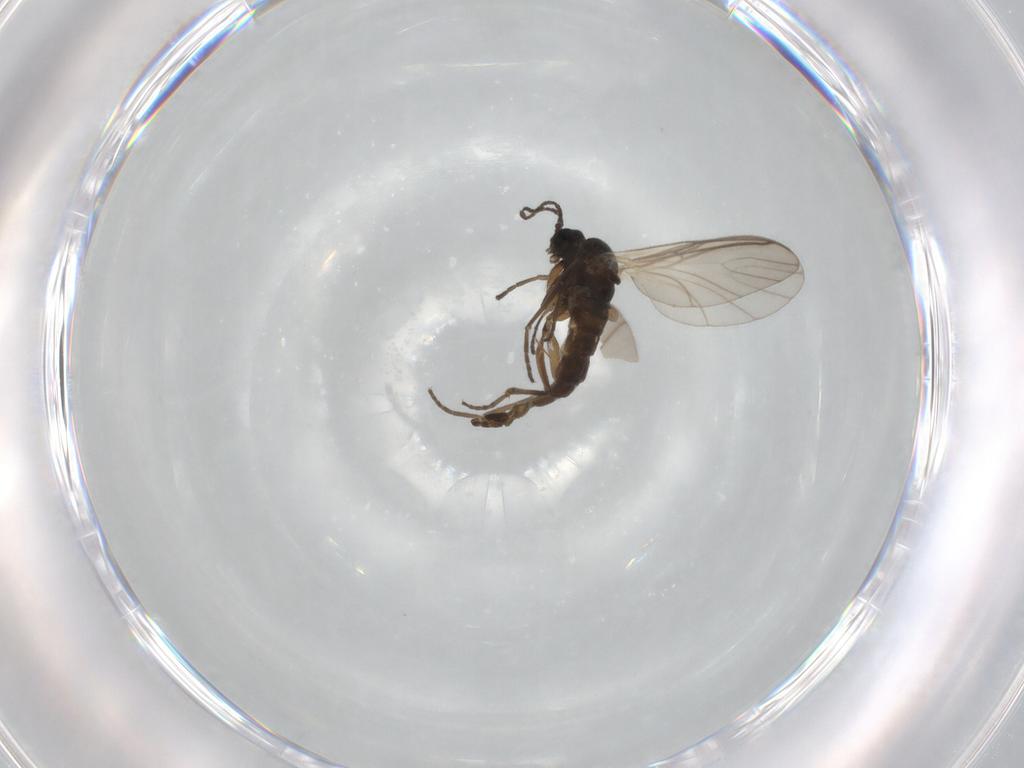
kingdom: Animalia
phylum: Arthropoda
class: Insecta
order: Diptera
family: Sciaridae
